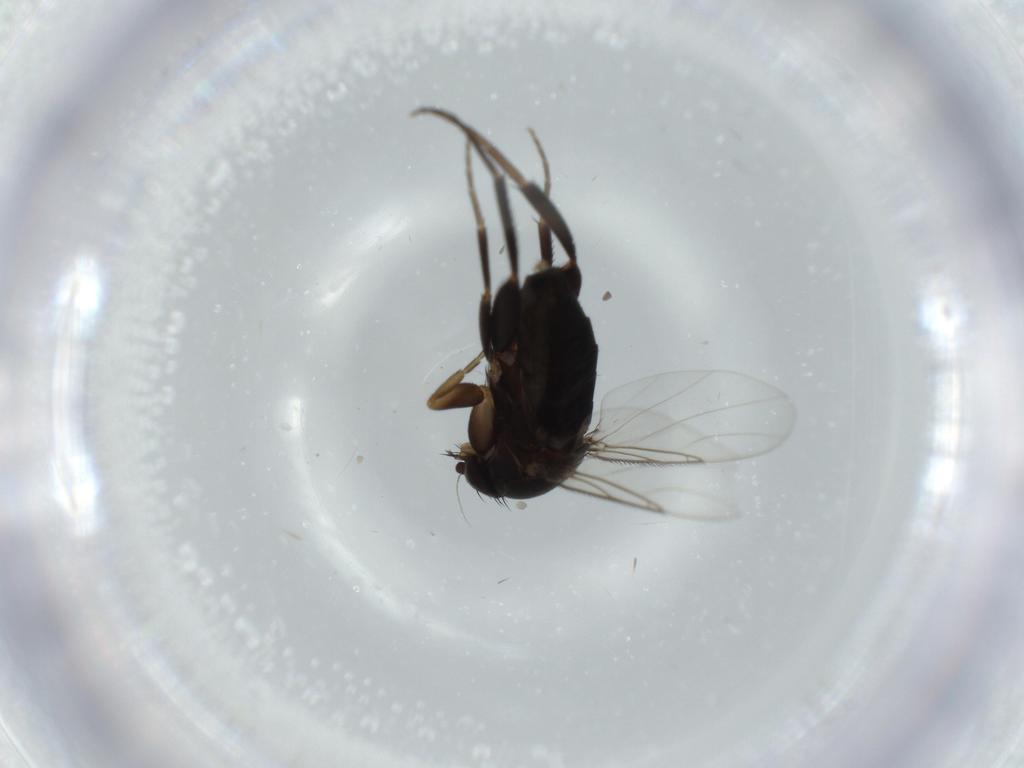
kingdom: Animalia
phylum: Arthropoda
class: Insecta
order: Diptera
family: Phoridae
